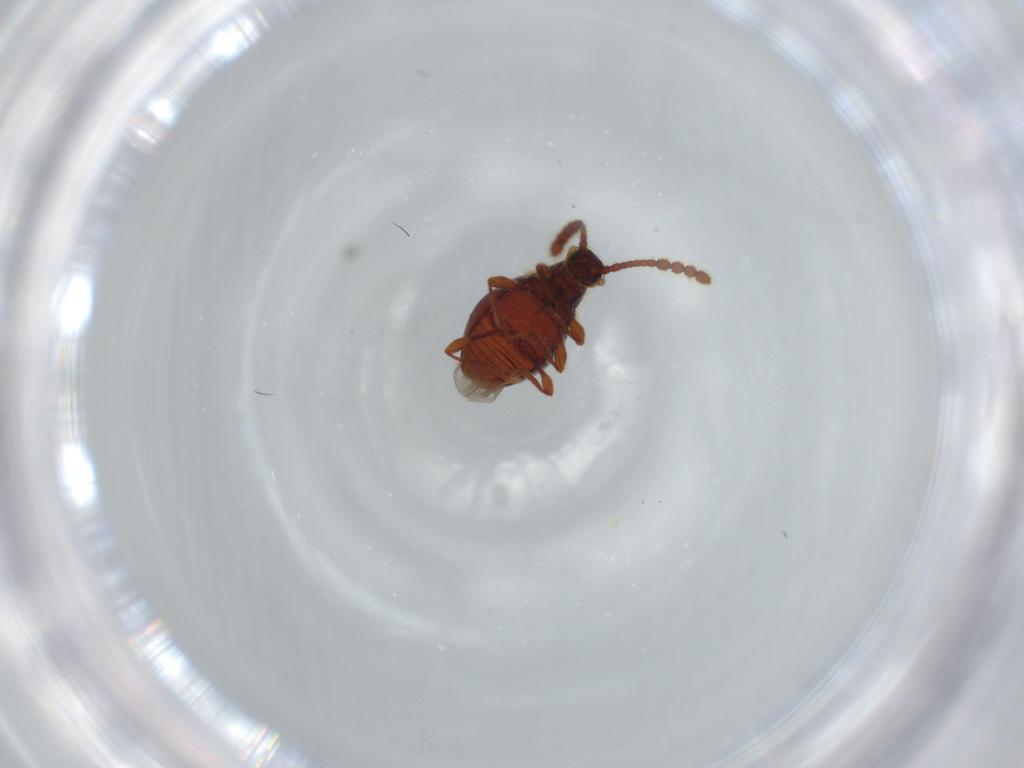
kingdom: Animalia
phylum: Arthropoda
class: Insecta
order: Coleoptera
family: Staphylinidae
